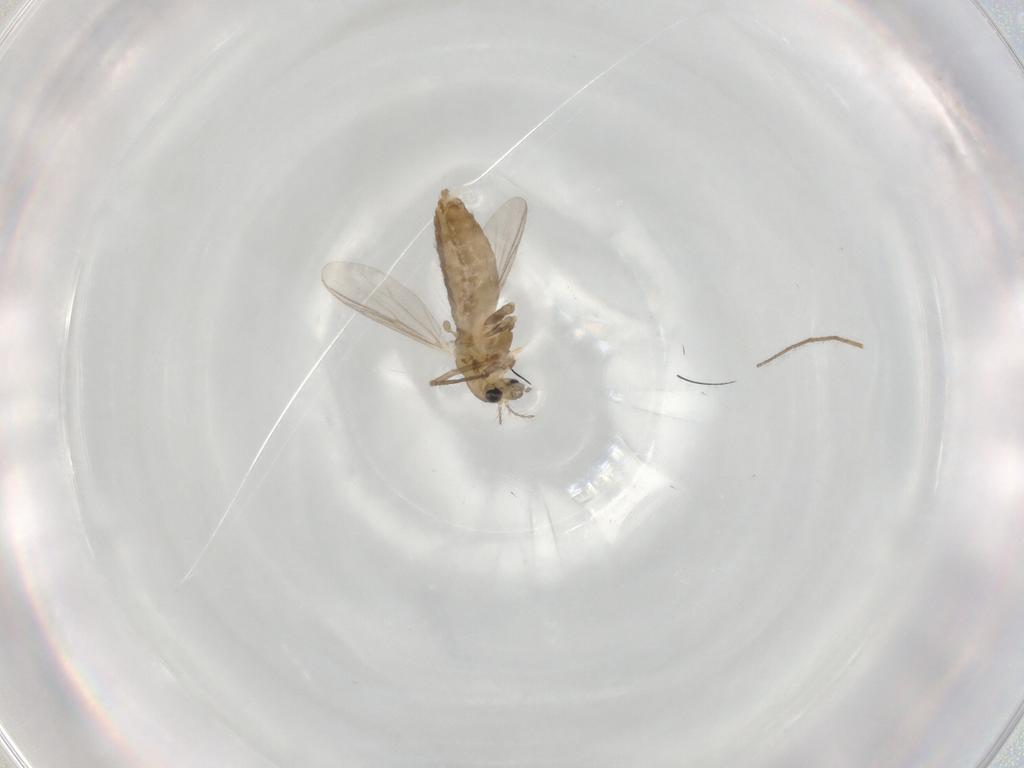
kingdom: Animalia
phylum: Arthropoda
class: Insecta
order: Diptera
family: Chironomidae
